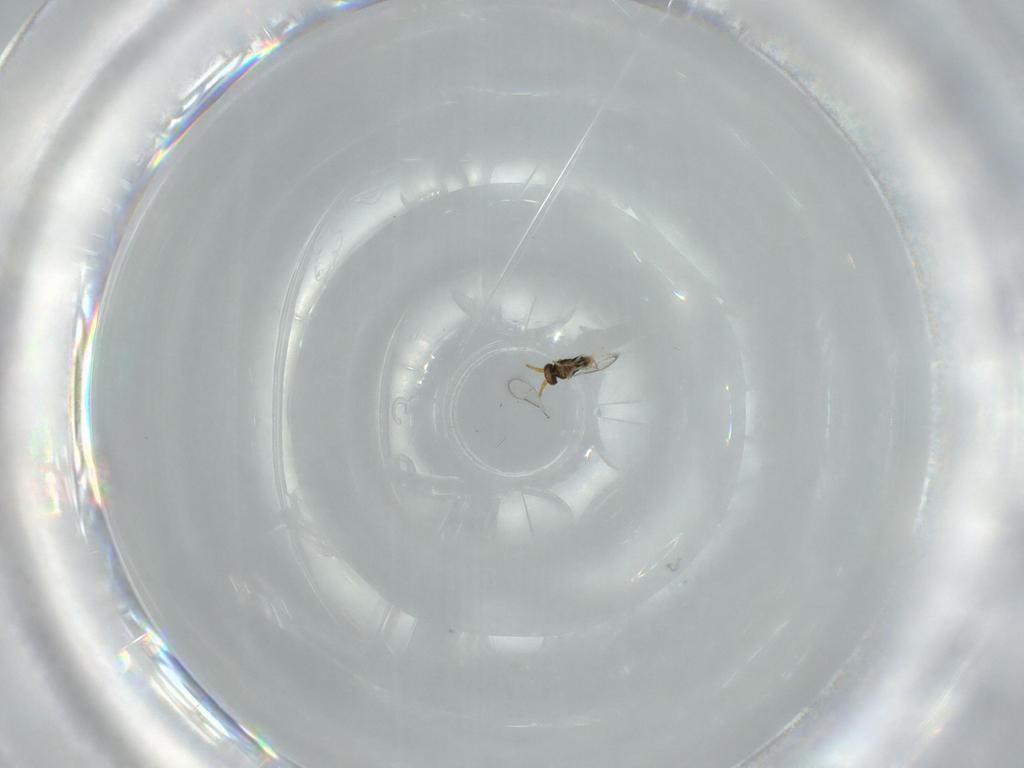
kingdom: Animalia
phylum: Arthropoda
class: Insecta
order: Hymenoptera
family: Aphelinidae
